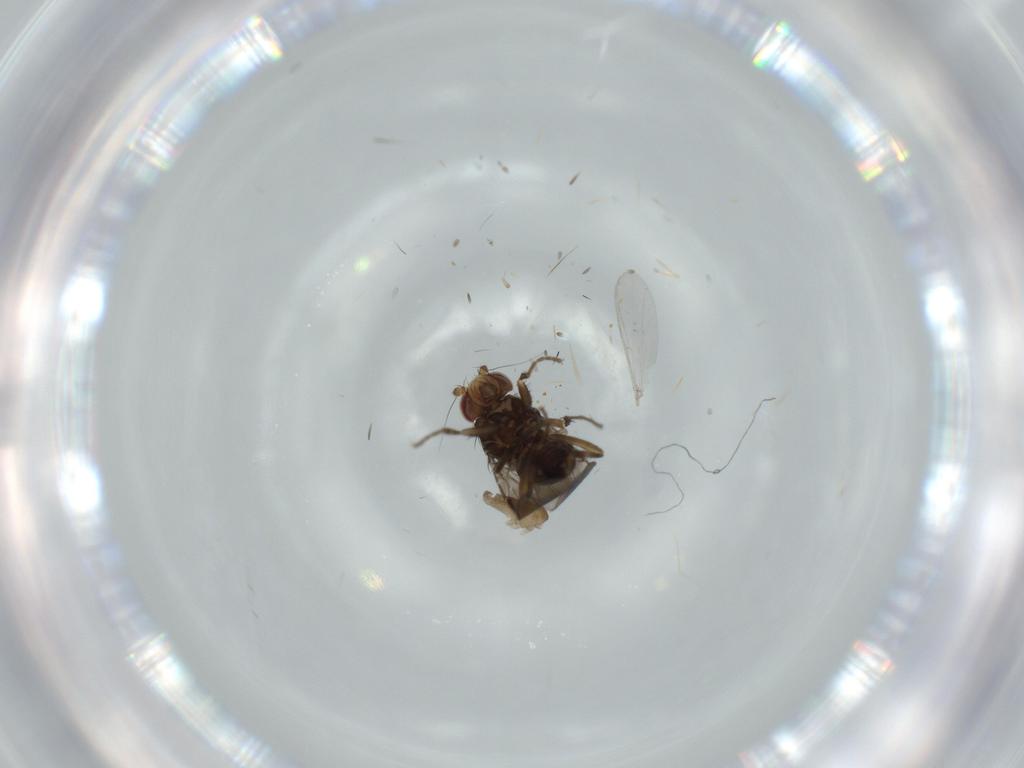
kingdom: Animalia
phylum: Arthropoda
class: Insecta
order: Diptera
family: Cecidomyiidae
